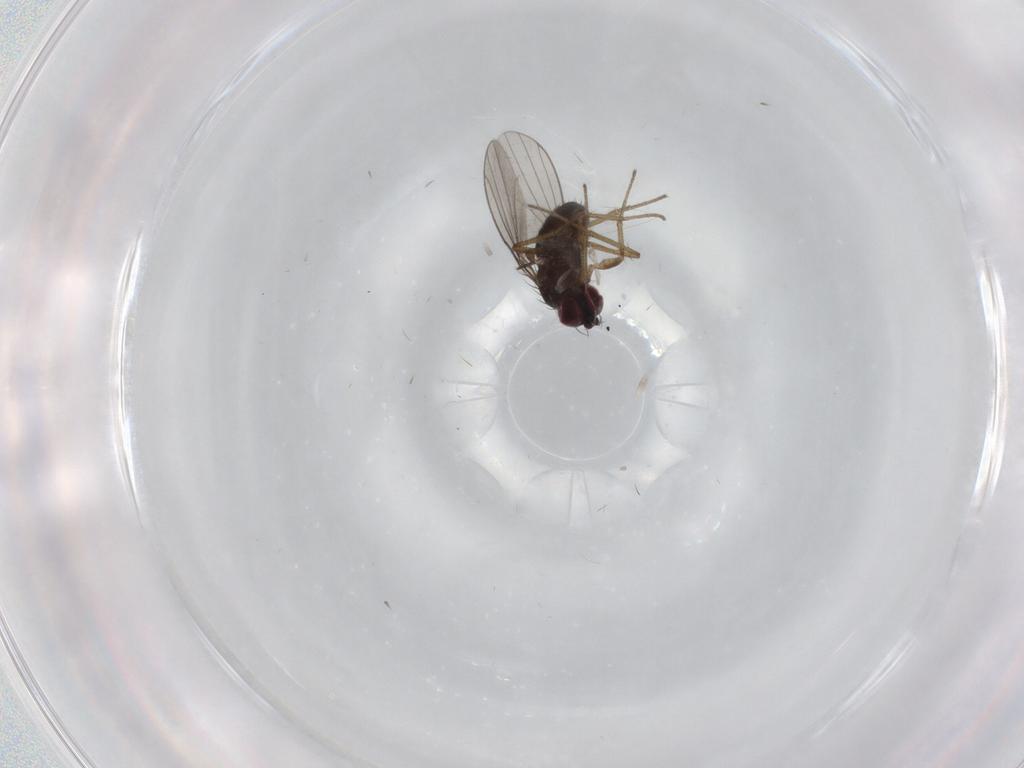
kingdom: Animalia
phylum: Arthropoda
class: Insecta
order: Diptera
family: Dolichopodidae
